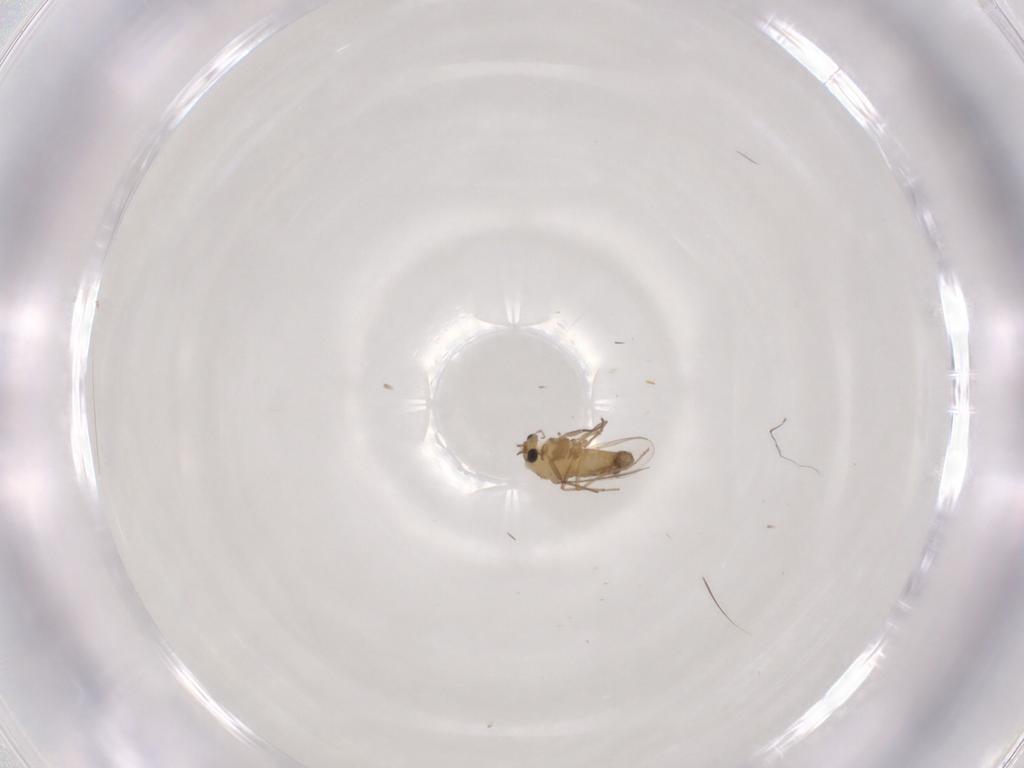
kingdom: Animalia
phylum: Arthropoda
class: Insecta
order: Diptera
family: Chironomidae
